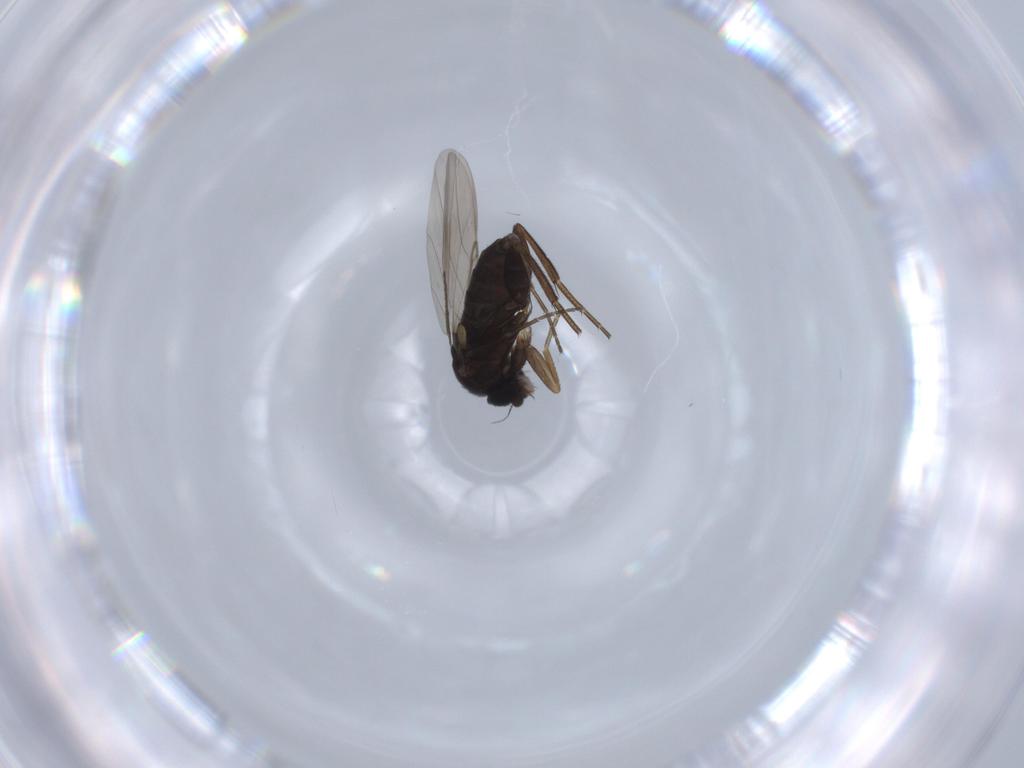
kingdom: Animalia
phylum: Arthropoda
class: Insecta
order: Diptera
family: Phoridae
